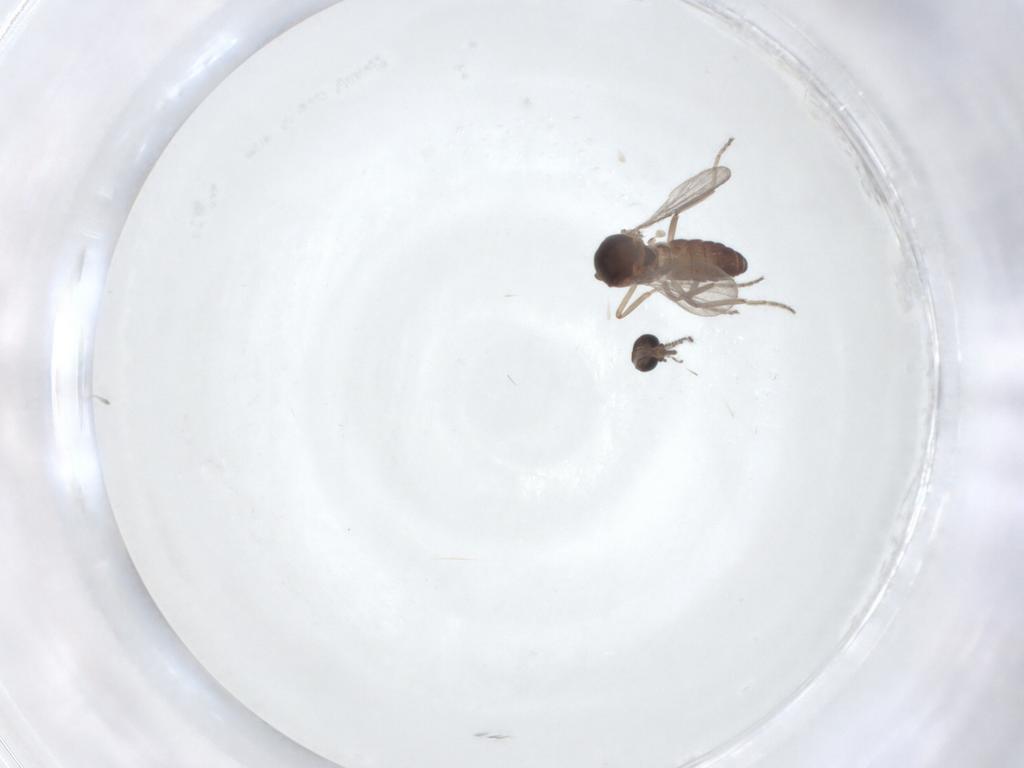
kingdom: Animalia
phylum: Arthropoda
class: Insecta
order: Diptera
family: Ceratopogonidae
